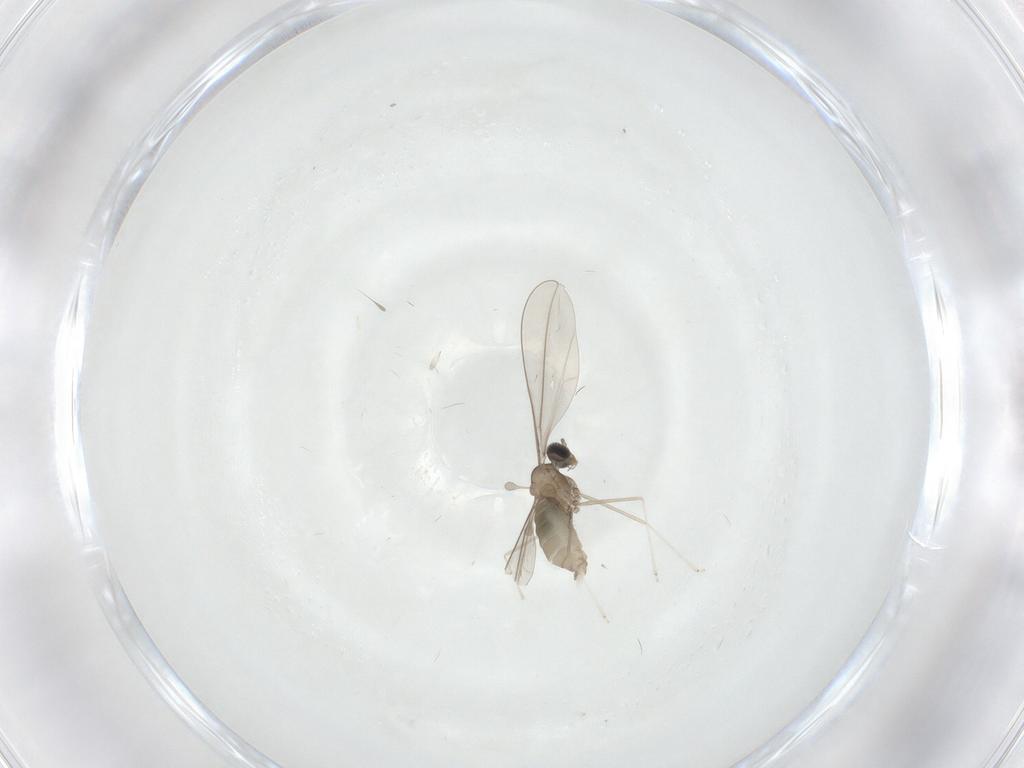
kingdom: Animalia
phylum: Arthropoda
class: Insecta
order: Diptera
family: Cecidomyiidae
